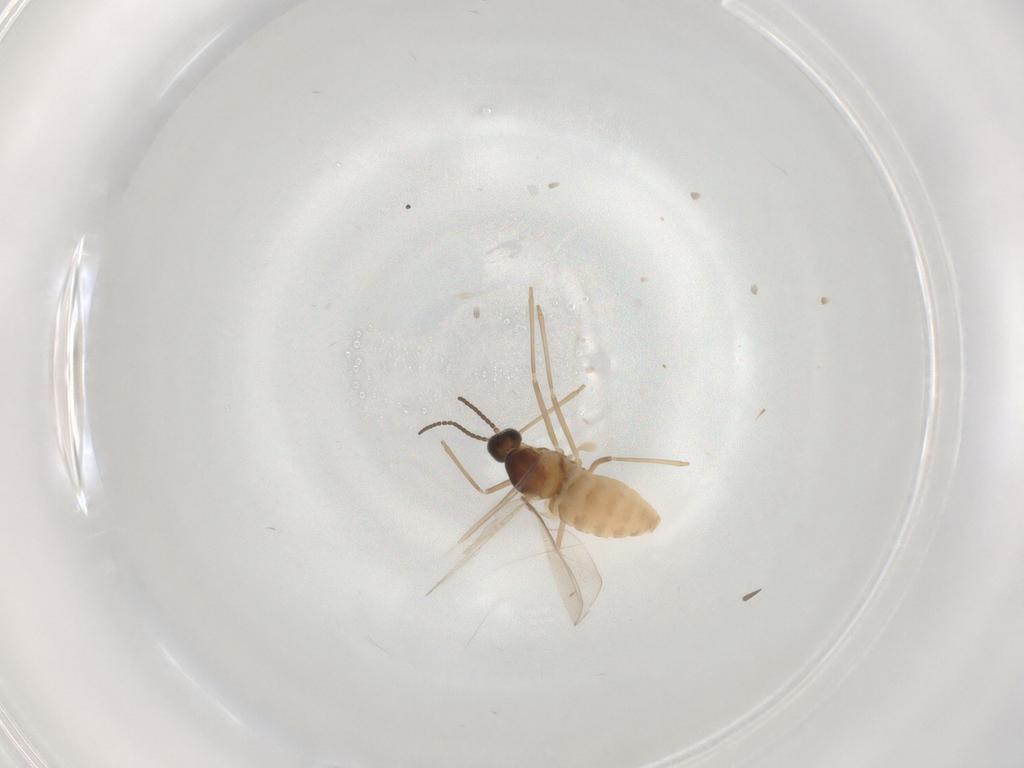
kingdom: Animalia
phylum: Arthropoda
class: Insecta
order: Diptera
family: Cecidomyiidae
